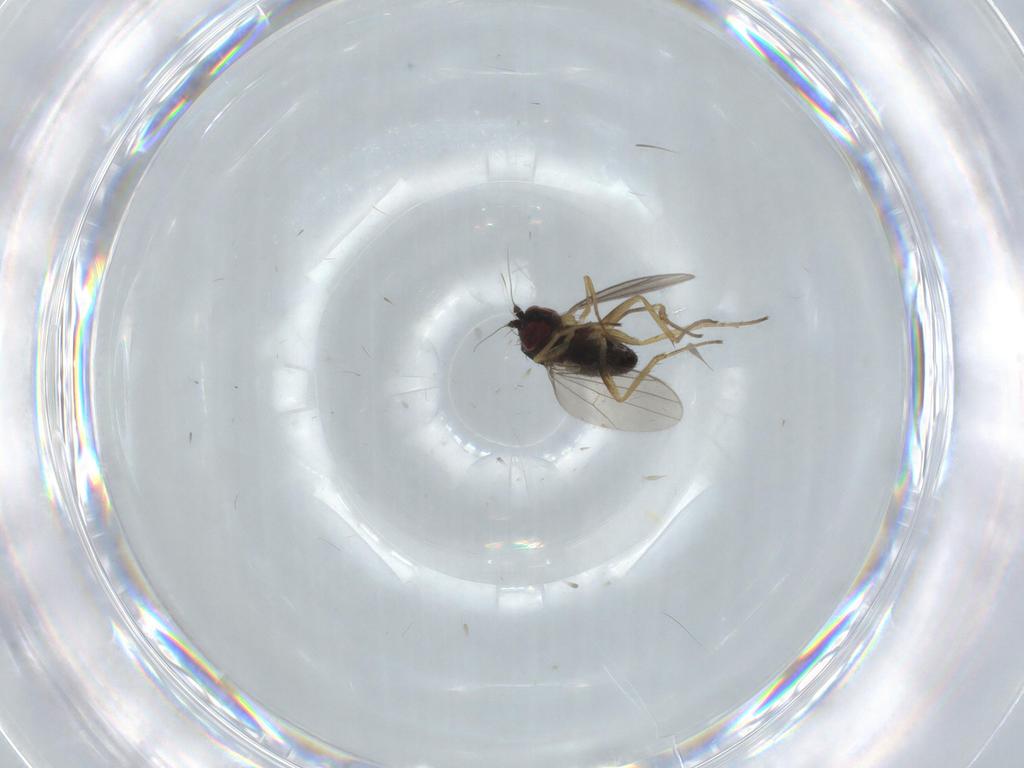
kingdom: Animalia
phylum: Arthropoda
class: Insecta
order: Diptera
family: Dolichopodidae
